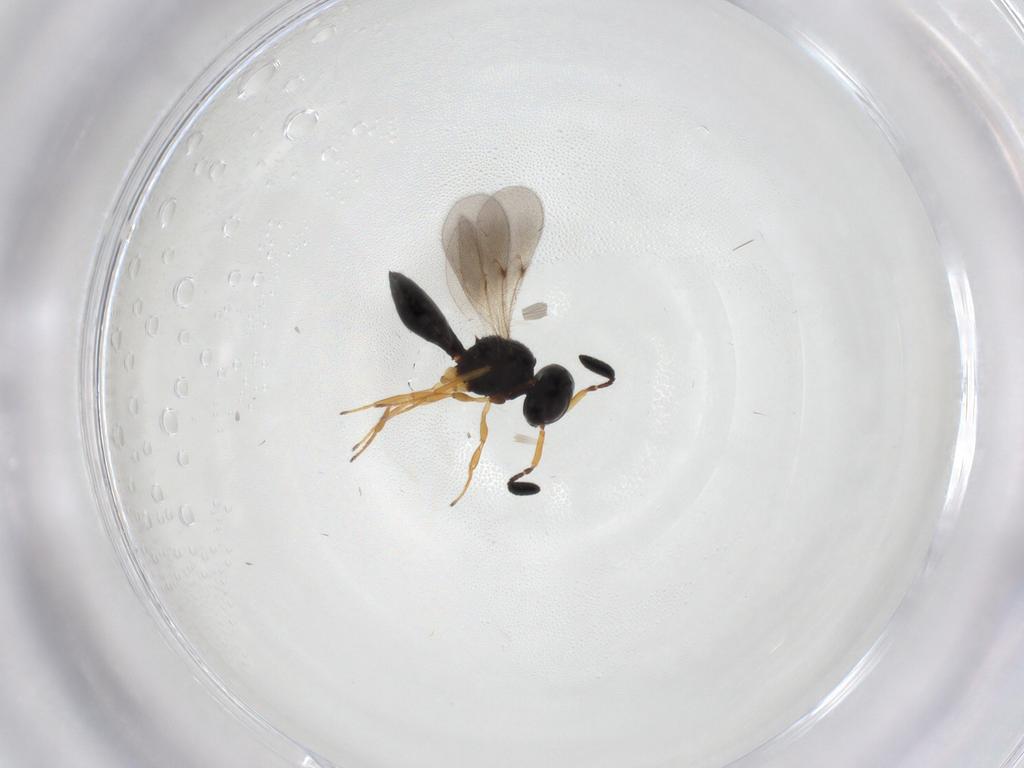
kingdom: Animalia
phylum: Arthropoda
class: Insecta
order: Hymenoptera
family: Scelionidae
